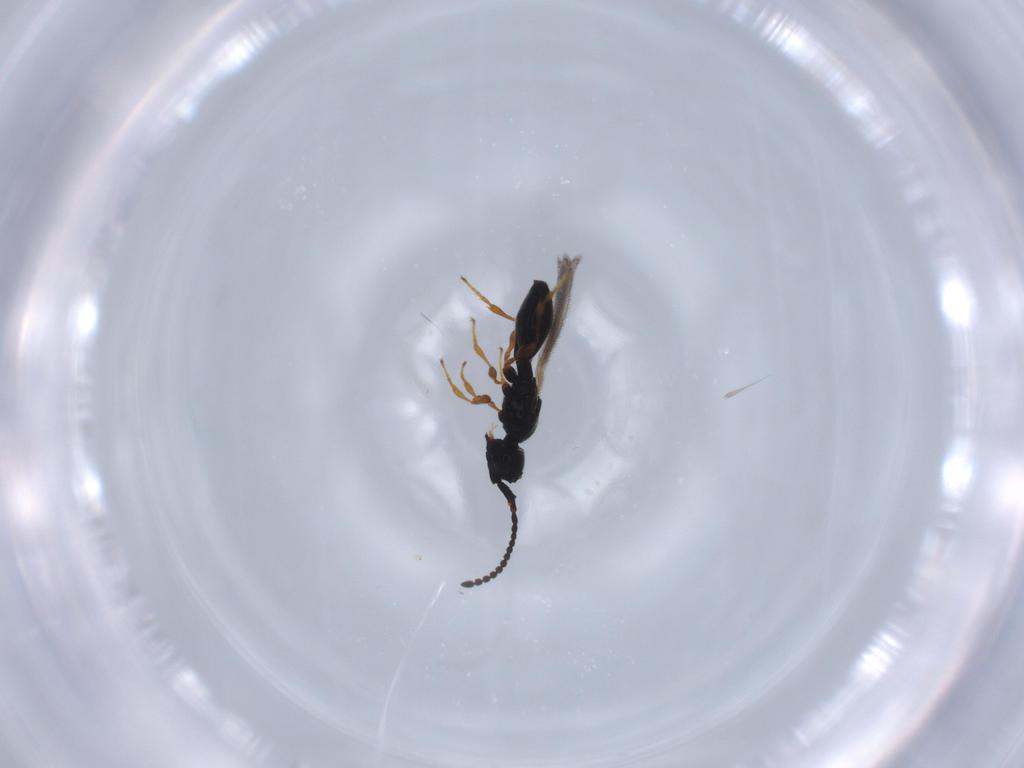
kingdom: Animalia
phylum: Arthropoda
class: Insecta
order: Hymenoptera
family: Diapriidae
